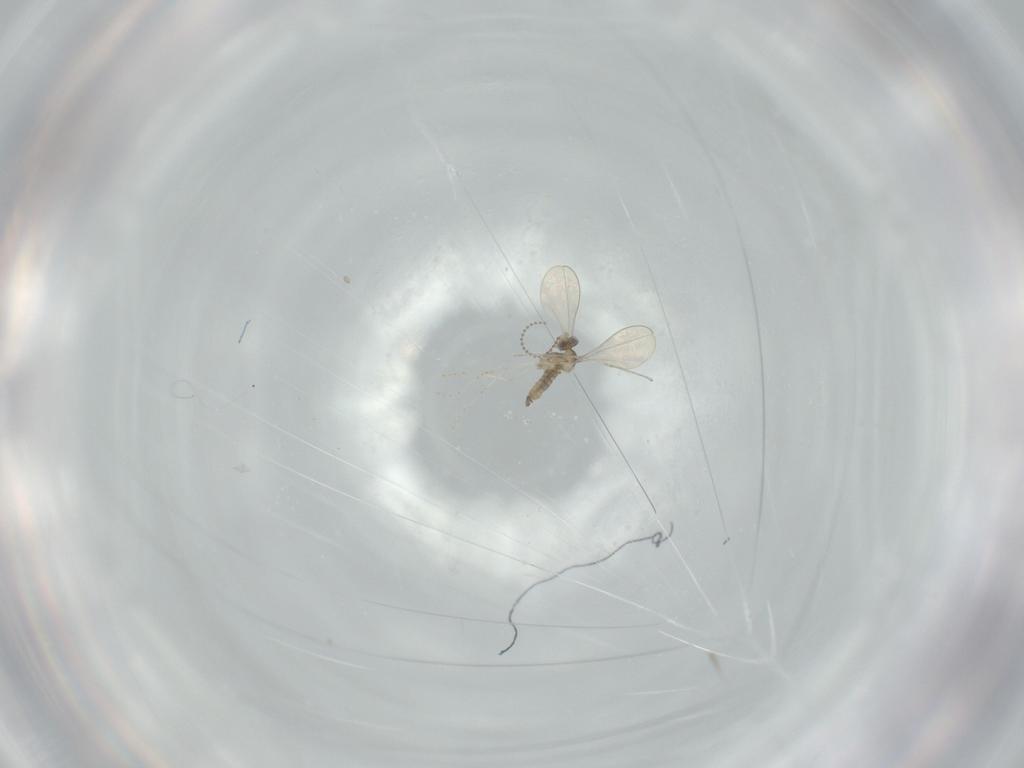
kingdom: Animalia
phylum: Arthropoda
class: Insecta
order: Diptera
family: Cecidomyiidae
